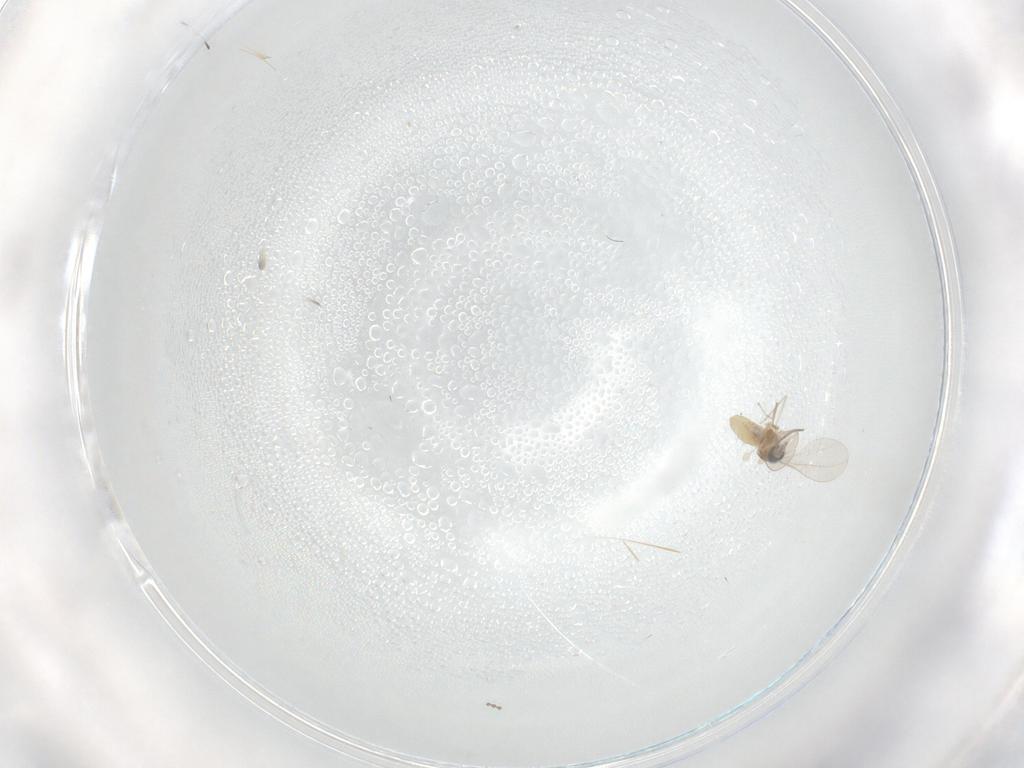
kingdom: Animalia
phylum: Arthropoda
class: Insecta
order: Diptera
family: Cecidomyiidae
